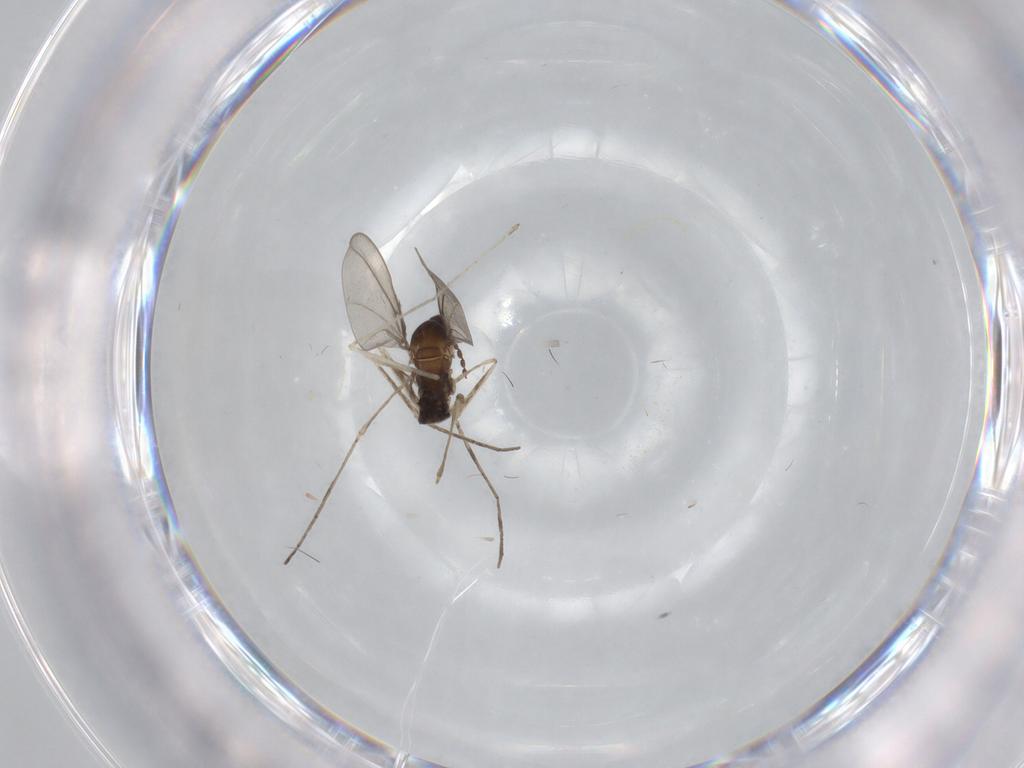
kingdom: Animalia
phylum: Arthropoda
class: Insecta
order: Diptera
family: Cecidomyiidae
